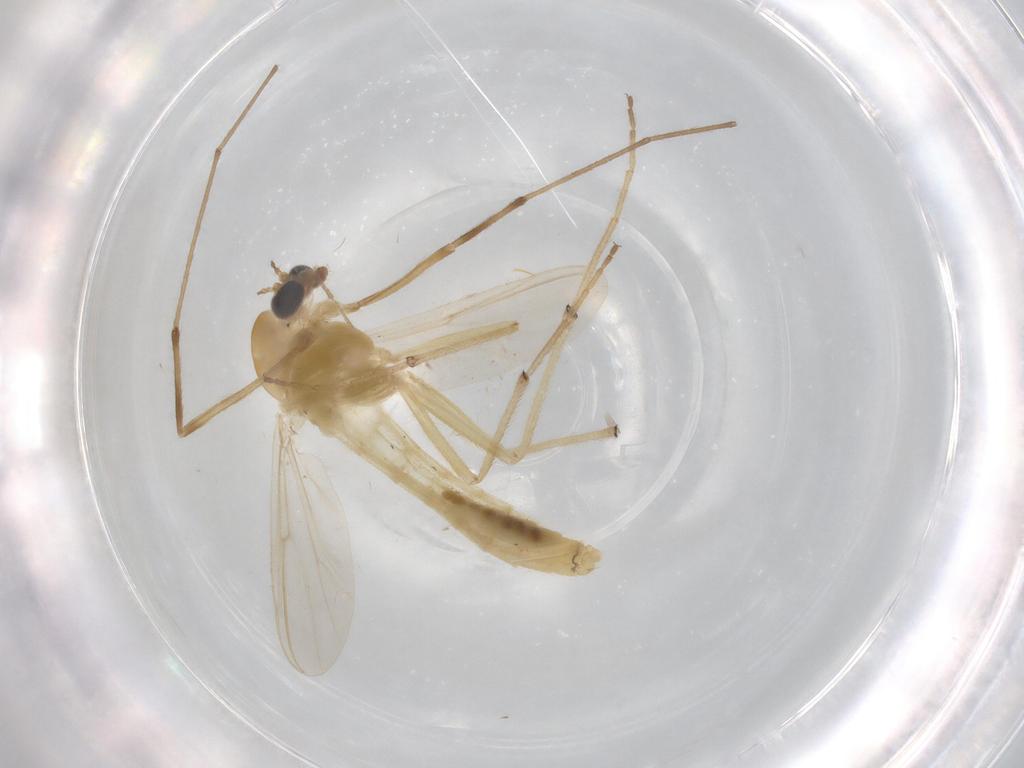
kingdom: Animalia
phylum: Arthropoda
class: Insecta
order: Diptera
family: Chironomidae
